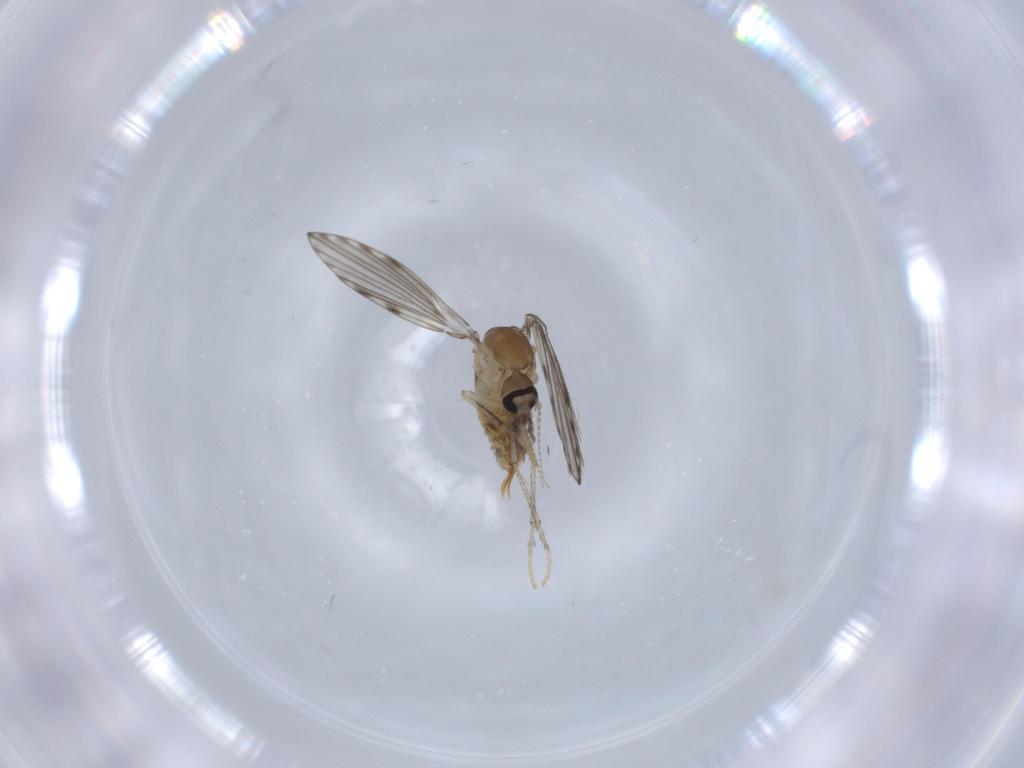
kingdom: Animalia
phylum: Arthropoda
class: Insecta
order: Diptera
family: Psychodidae
